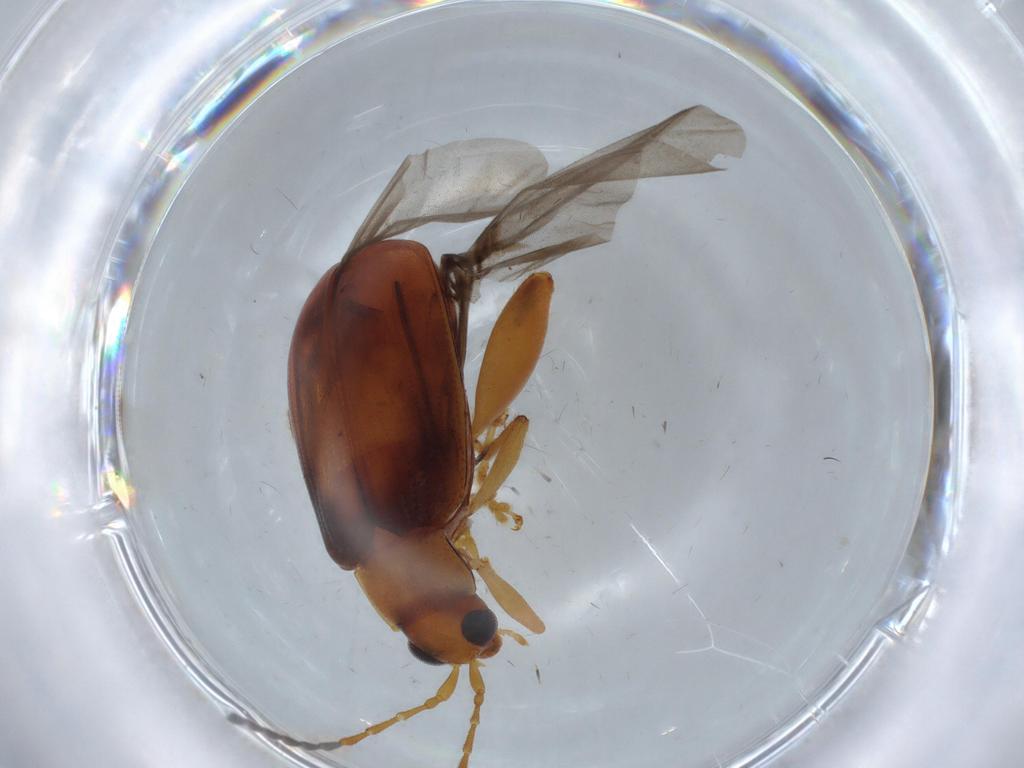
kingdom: Animalia
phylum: Arthropoda
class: Insecta
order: Coleoptera
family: Chrysomelidae
